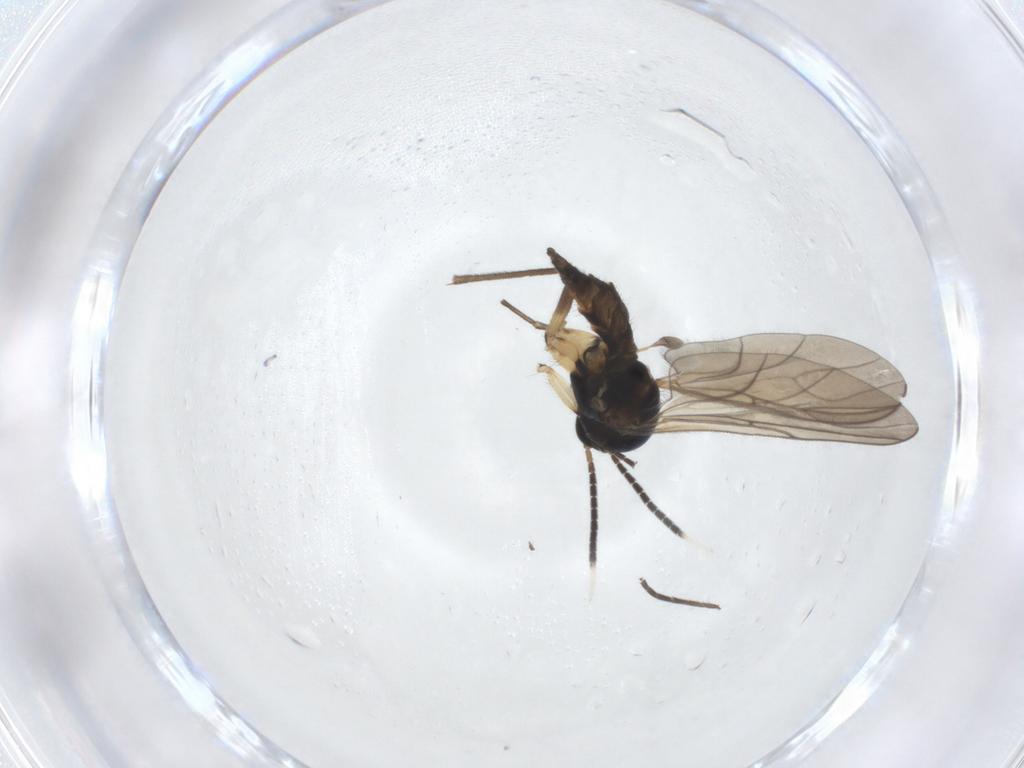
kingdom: Animalia
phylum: Arthropoda
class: Insecta
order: Diptera
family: Sciaridae
